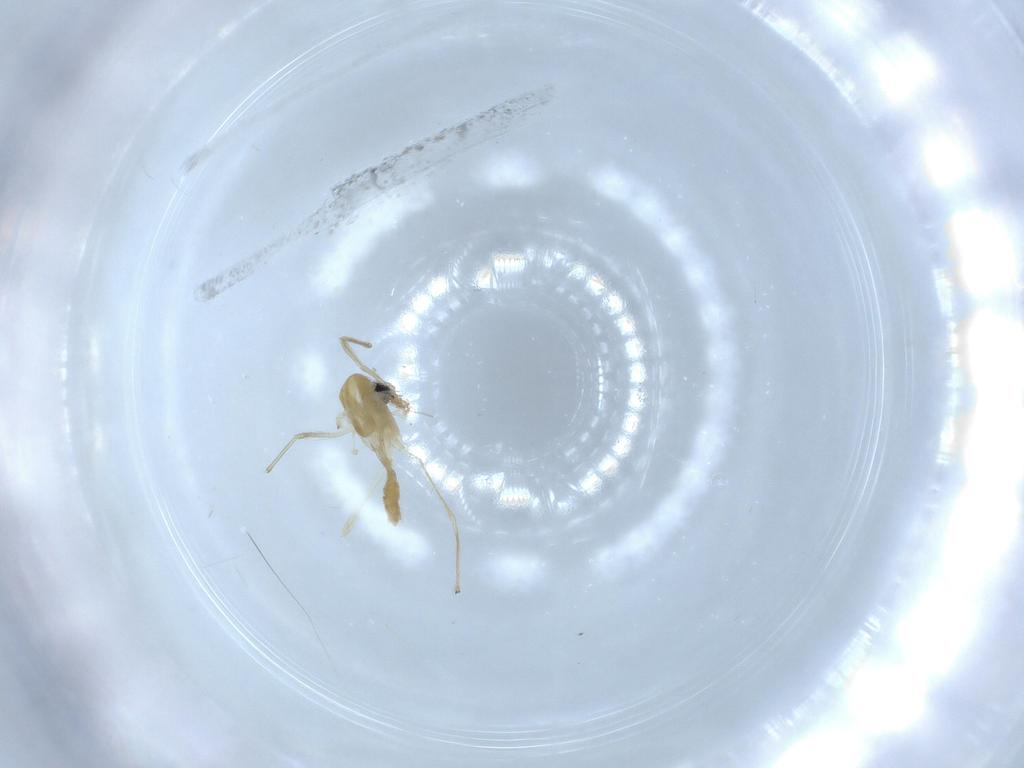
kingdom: Animalia
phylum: Arthropoda
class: Insecta
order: Diptera
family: Chironomidae
